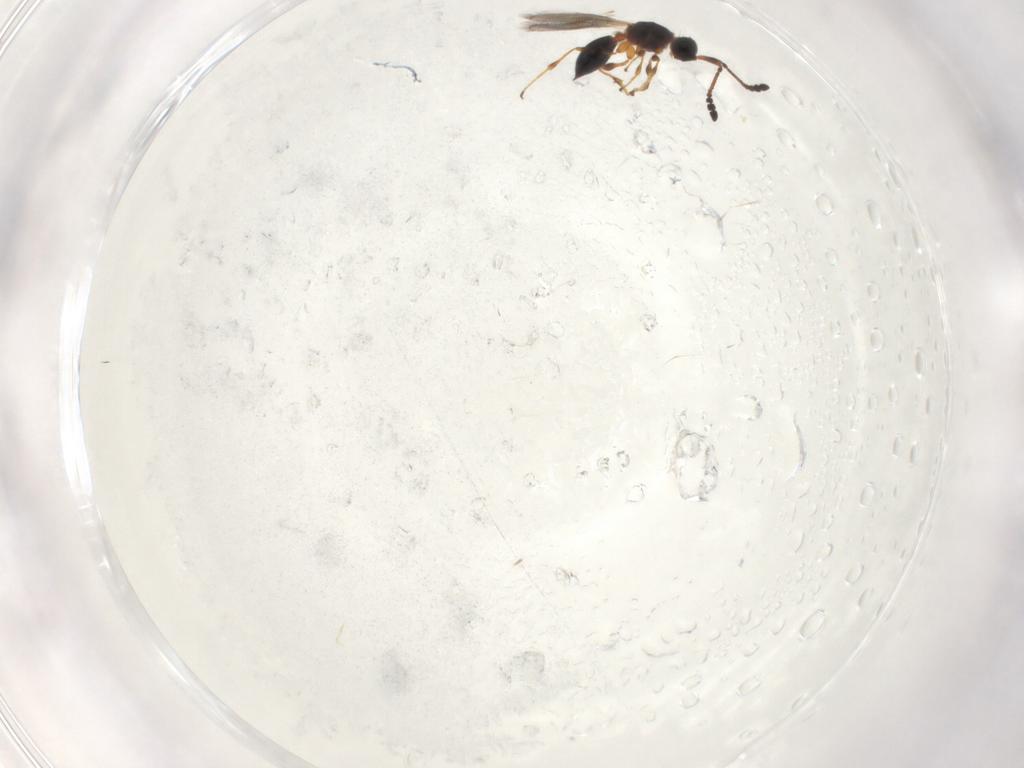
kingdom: Animalia
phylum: Arthropoda
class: Insecta
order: Hymenoptera
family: Diapriidae
